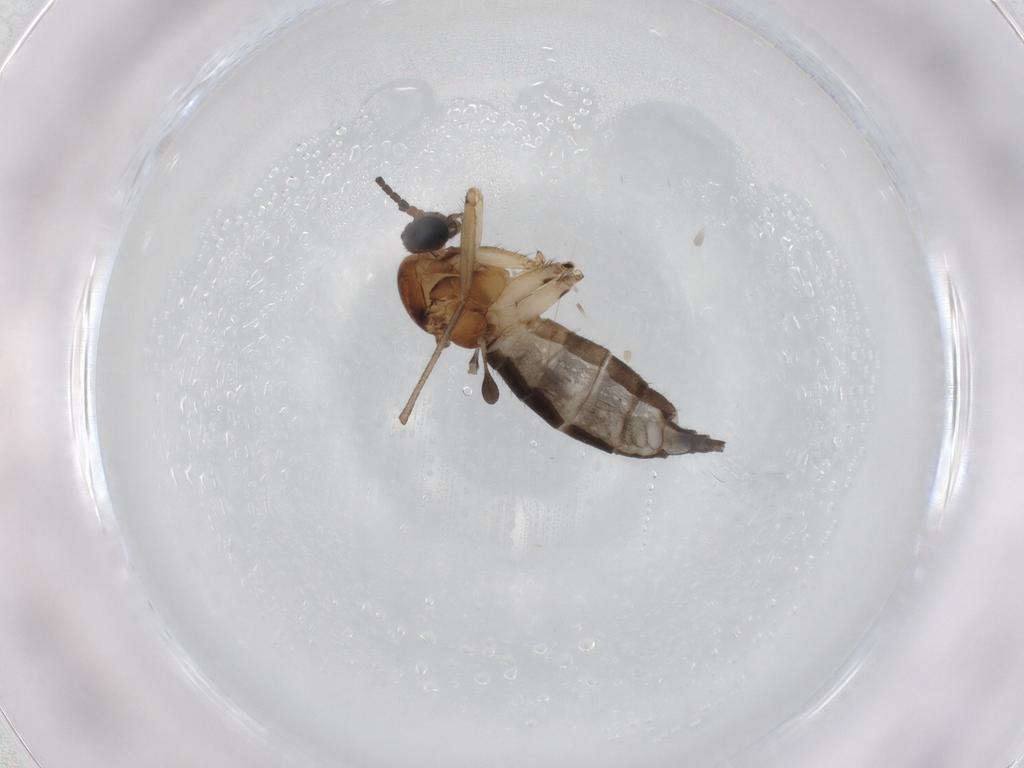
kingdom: Animalia
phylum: Arthropoda
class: Insecta
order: Diptera
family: Sciaridae
